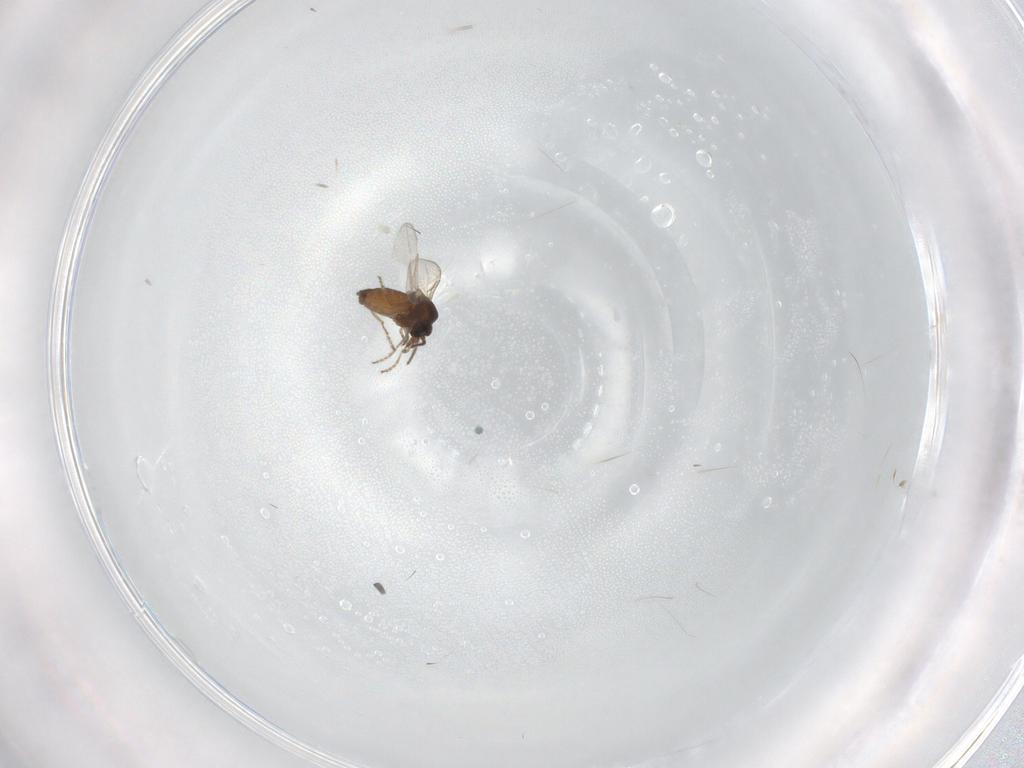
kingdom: Animalia
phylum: Arthropoda
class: Insecta
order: Diptera
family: Ceratopogonidae
